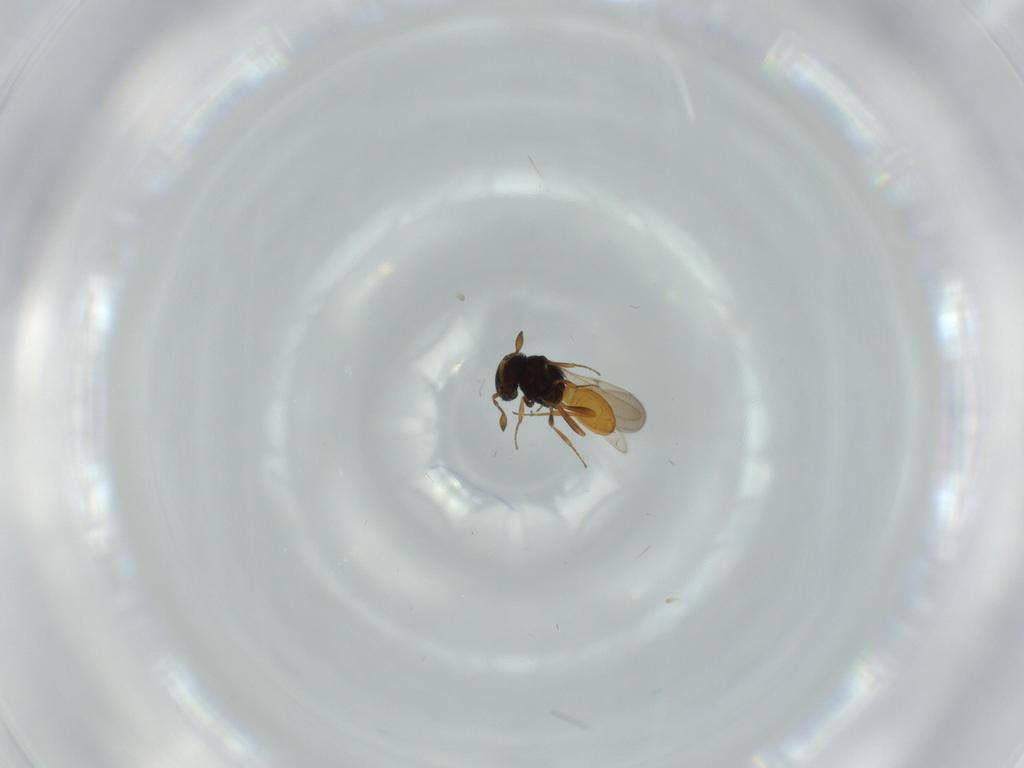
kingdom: Animalia
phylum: Arthropoda
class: Insecta
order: Hymenoptera
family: Scelionidae
